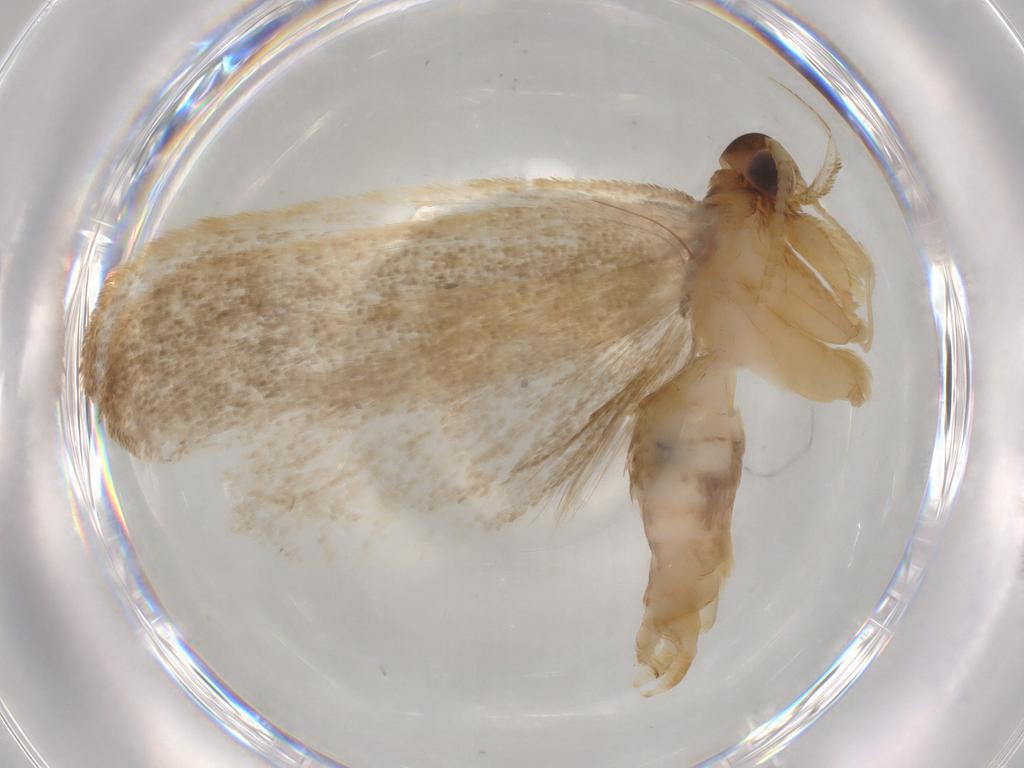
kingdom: Animalia
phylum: Arthropoda
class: Insecta
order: Lepidoptera
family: Lecithoceridae
